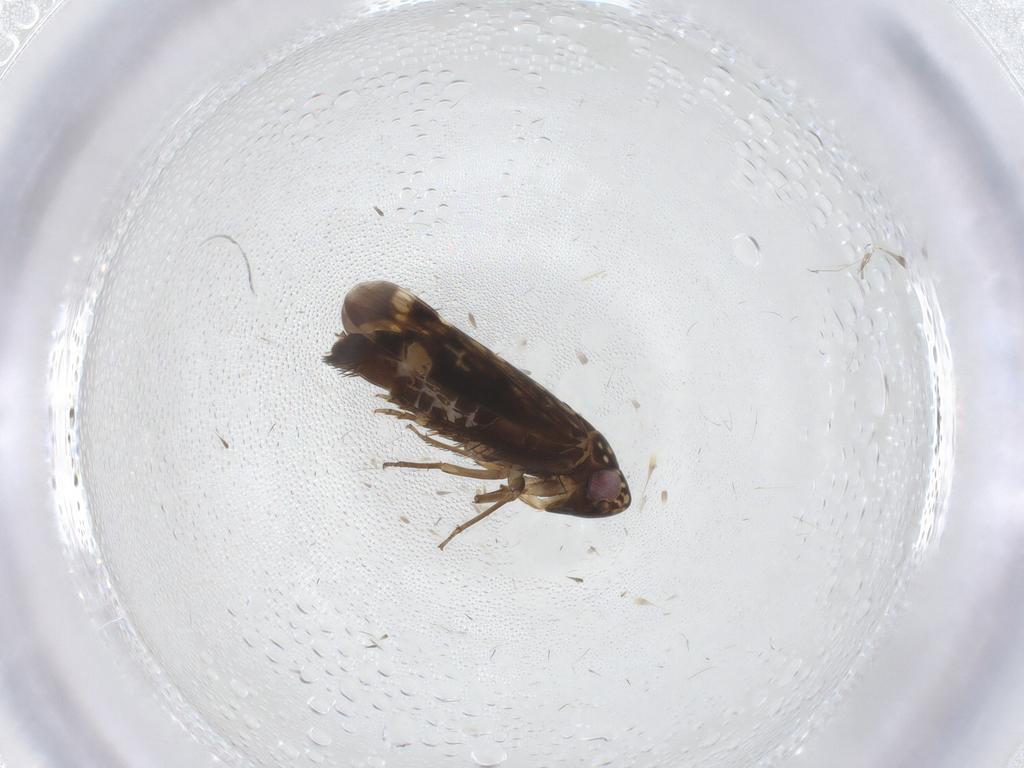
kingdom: Animalia
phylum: Arthropoda
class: Insecta
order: Hemiptera
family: Cicadellidae
